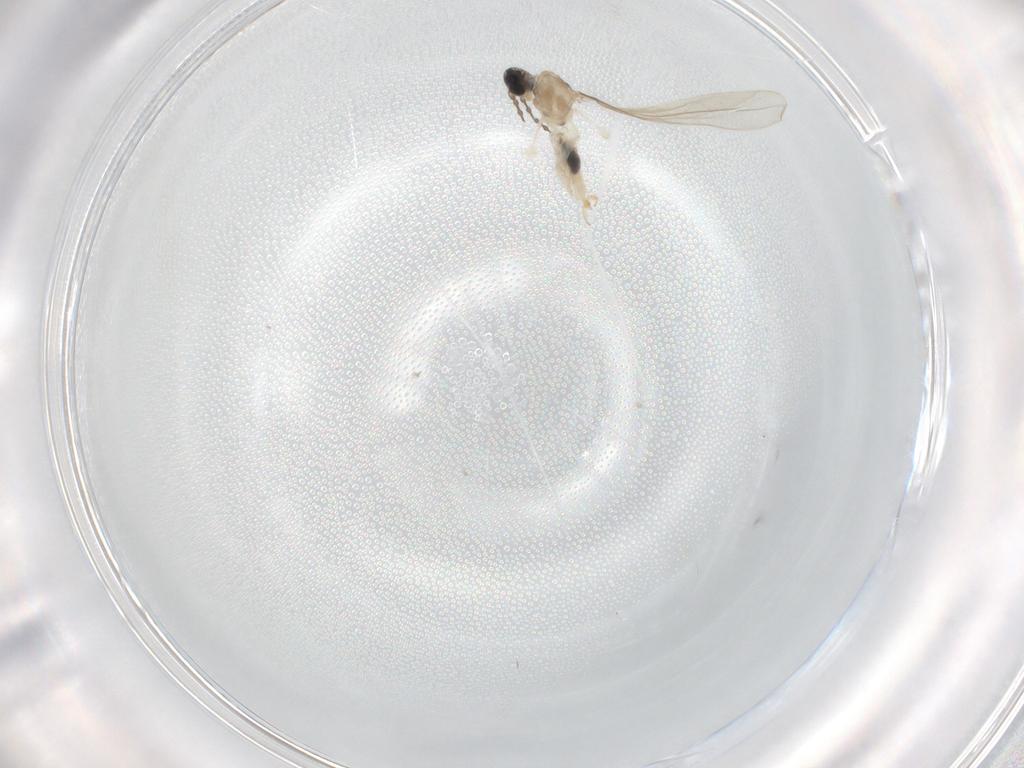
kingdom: Animalia
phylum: Arthropoda
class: Insecta
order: Diptera
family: Cecidomyiidae
